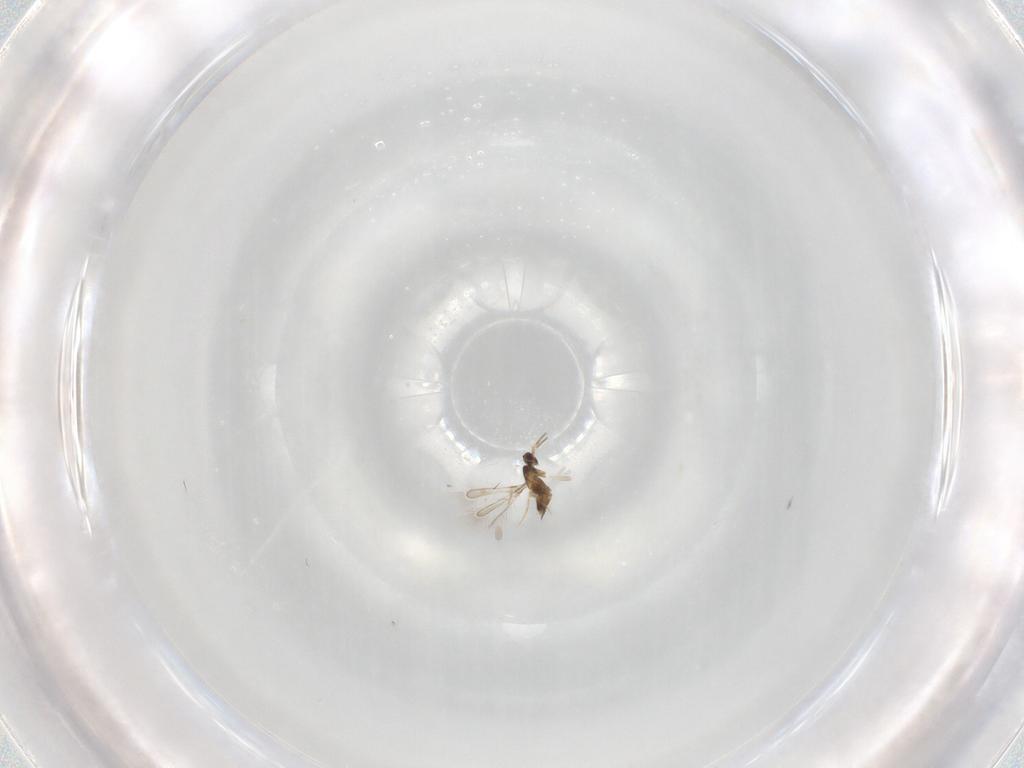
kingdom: Animalia
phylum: Arthropoda
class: Insecta
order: Hymenoptera
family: Mymaridae
